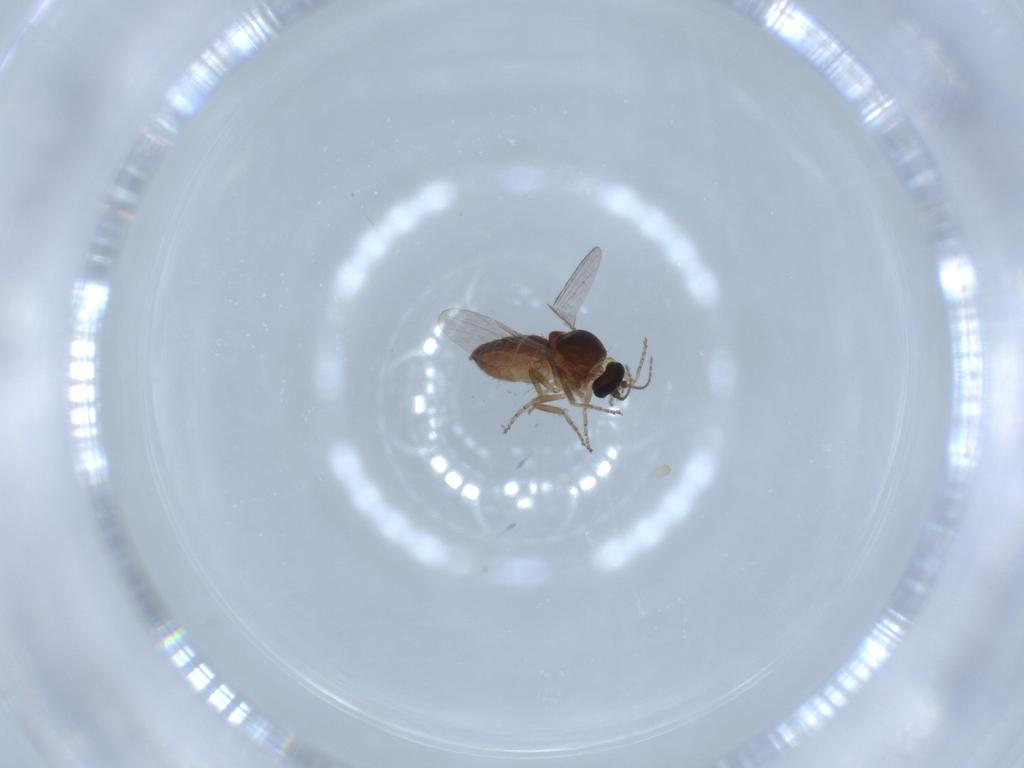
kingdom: Animalia
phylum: Arthropoda
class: Insecta
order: Diptera
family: Ceratopogonidae
